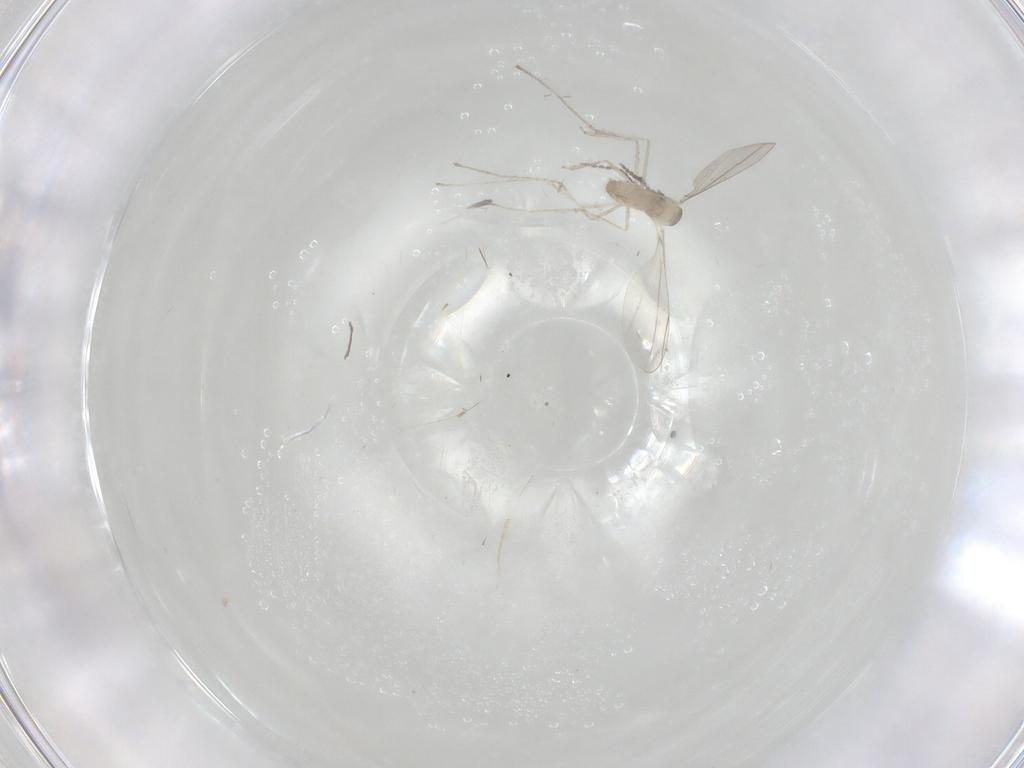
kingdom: Animalia
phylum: Arthropoda
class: Insecta
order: Diptera
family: Cecidomyiidae
